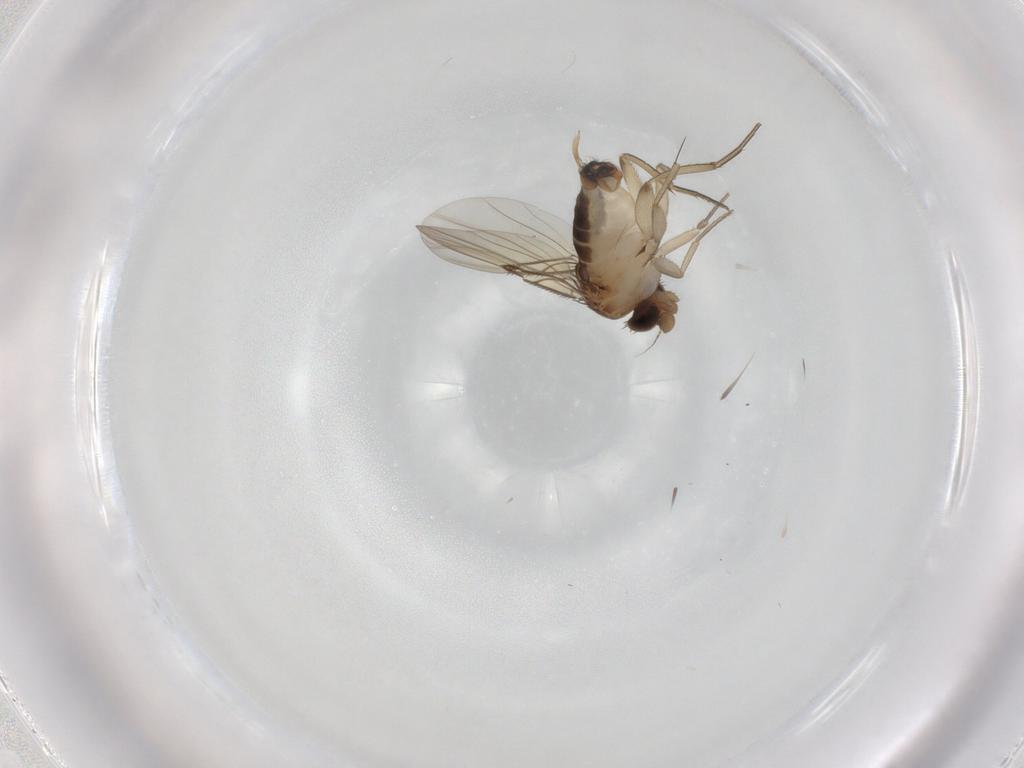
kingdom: Animalia
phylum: Arthropoda
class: Insecta
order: Diptera
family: Phoridae
